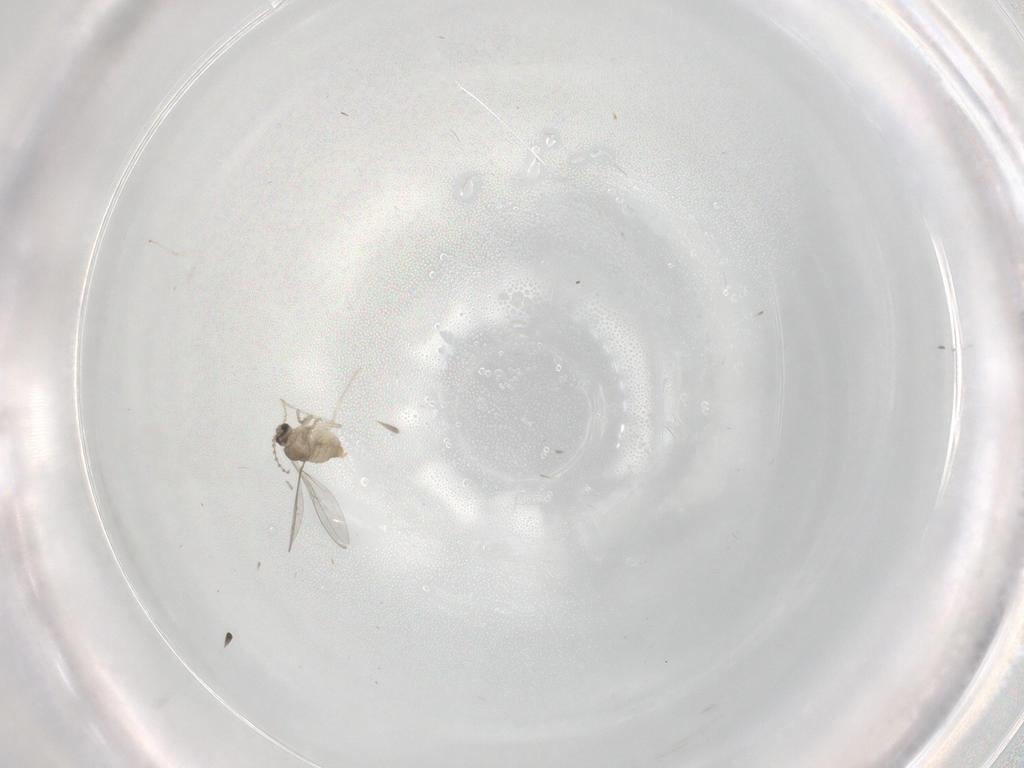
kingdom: Animalia
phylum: Arthropoda
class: Insecta
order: Diptera
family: Cecidomyiidae
